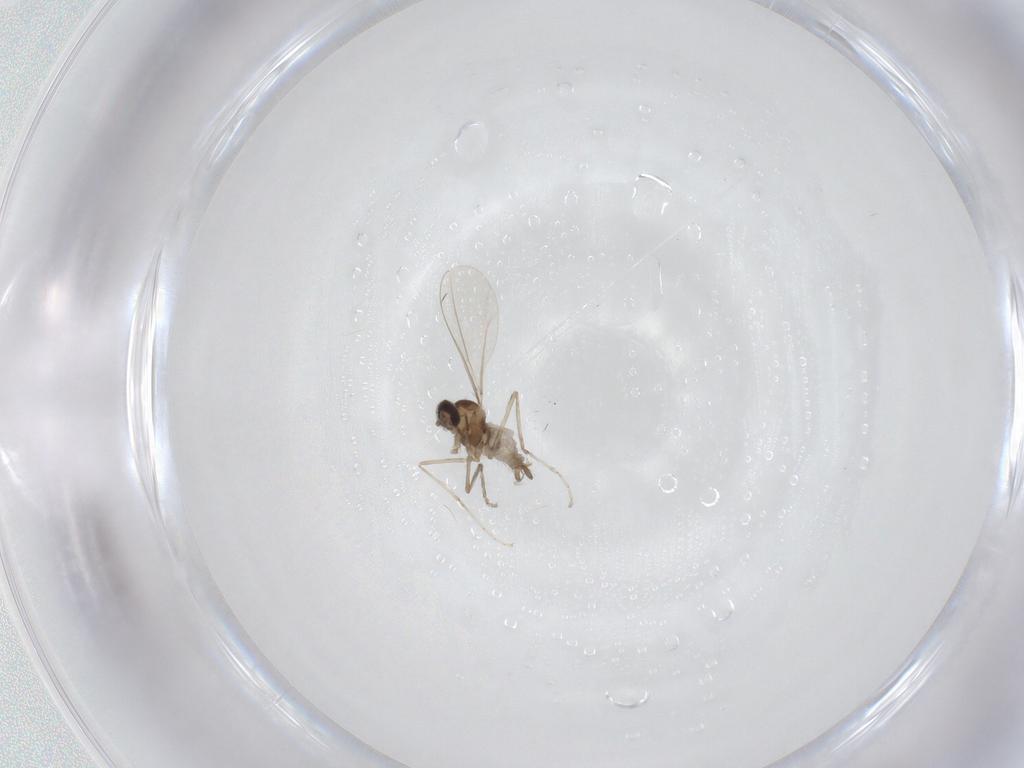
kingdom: Animalia
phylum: Arthropoda
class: Insecta
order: Diptera
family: Cecidomyiidae
